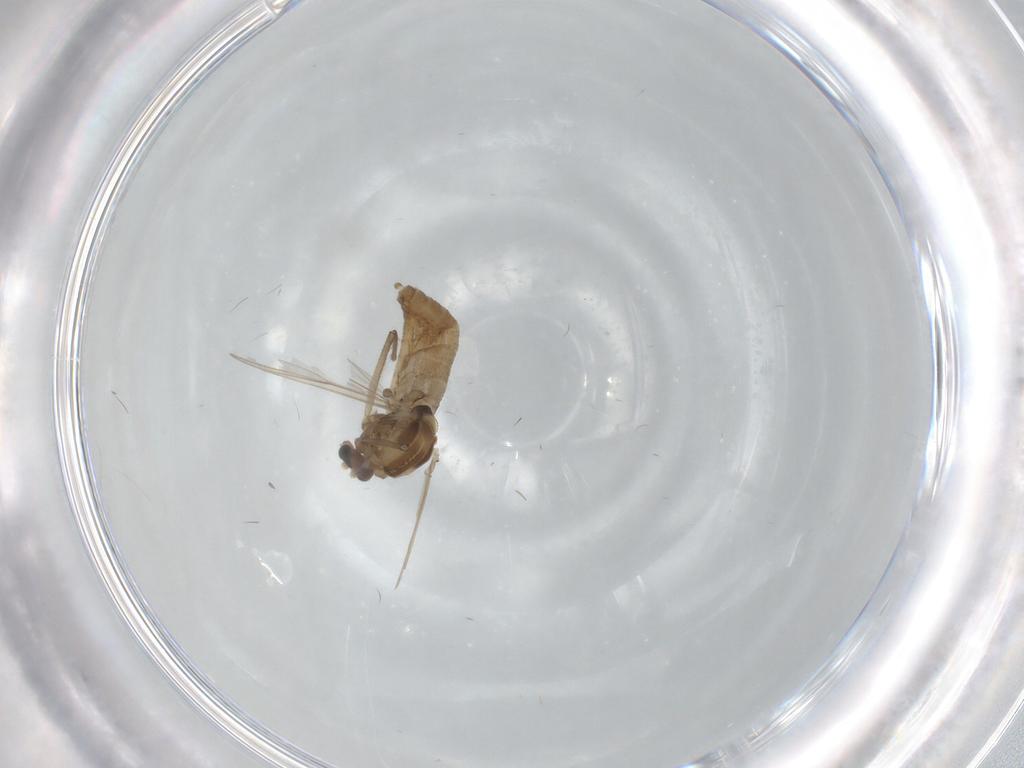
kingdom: Animalia
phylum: Arthropoda
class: Insecta
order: Diptera
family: Chironomidae
